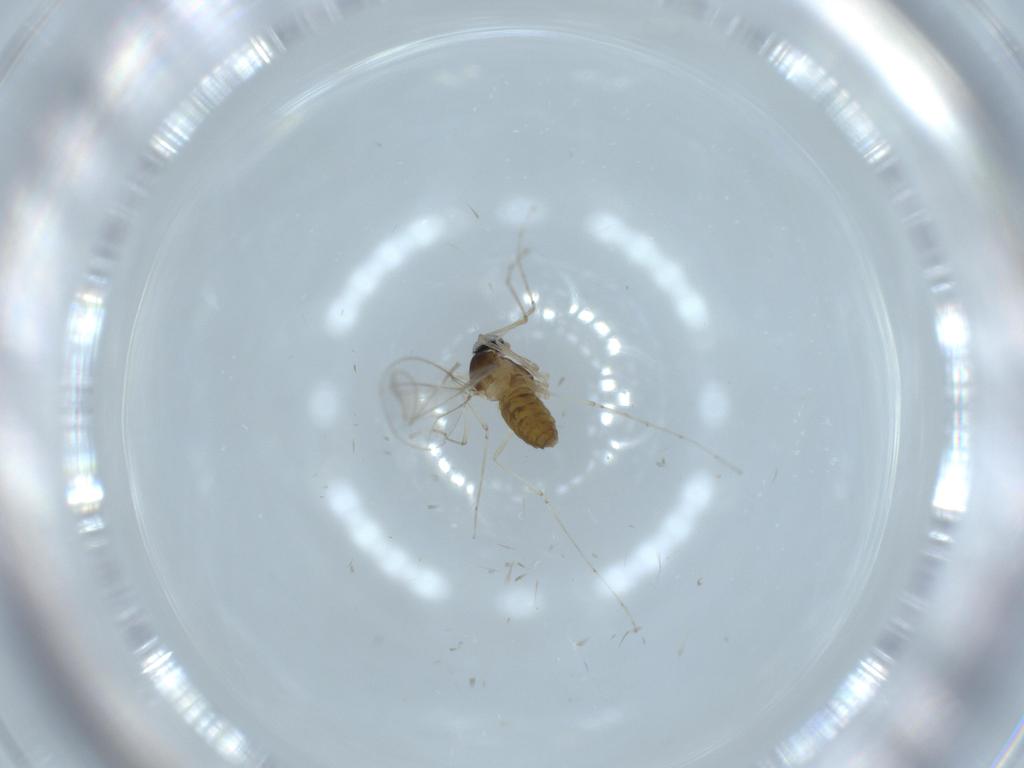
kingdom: Animalia
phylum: Arthropoda
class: Insecta
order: Diptera
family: Cecidomyiidae
